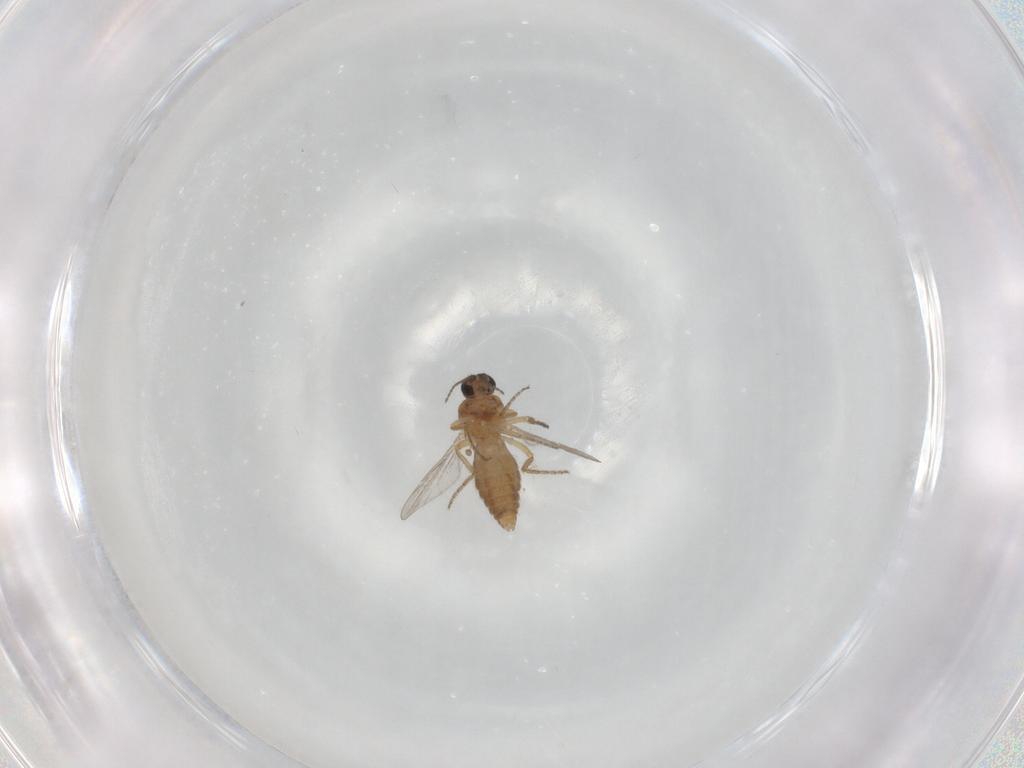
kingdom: Animalia
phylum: Arthropoda
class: Insecta
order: Diptera
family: Ceratopogonidae
